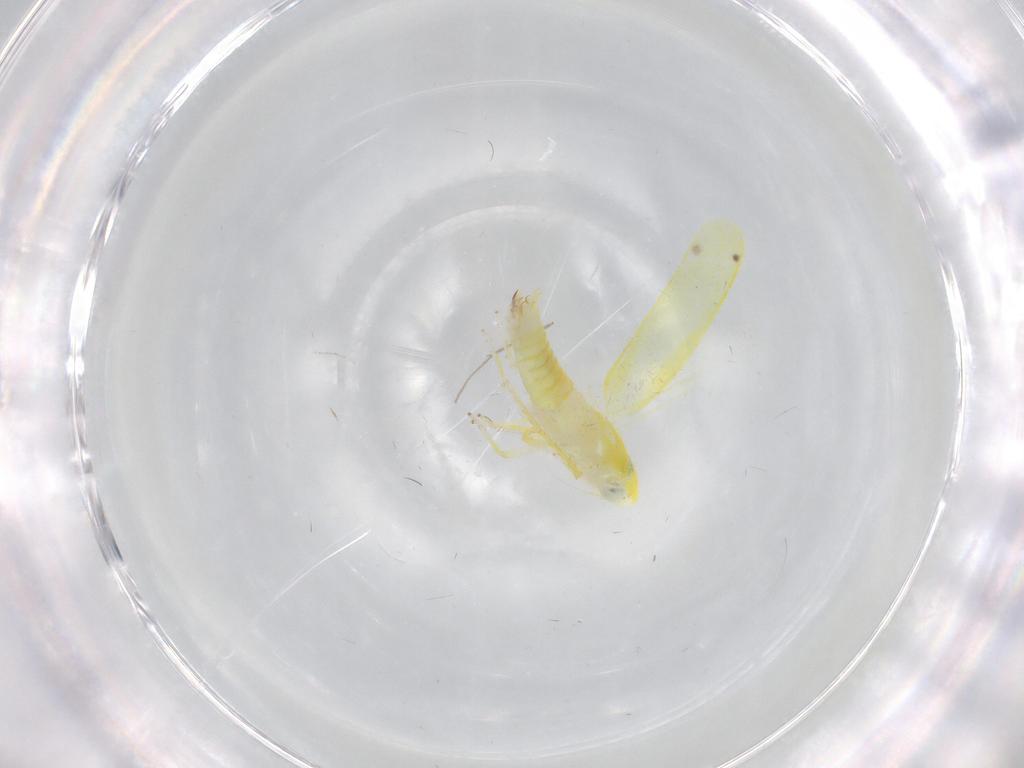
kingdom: Animalia
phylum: Arthropoda
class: Insecta
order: Hemiptera
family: Cicadellidae
